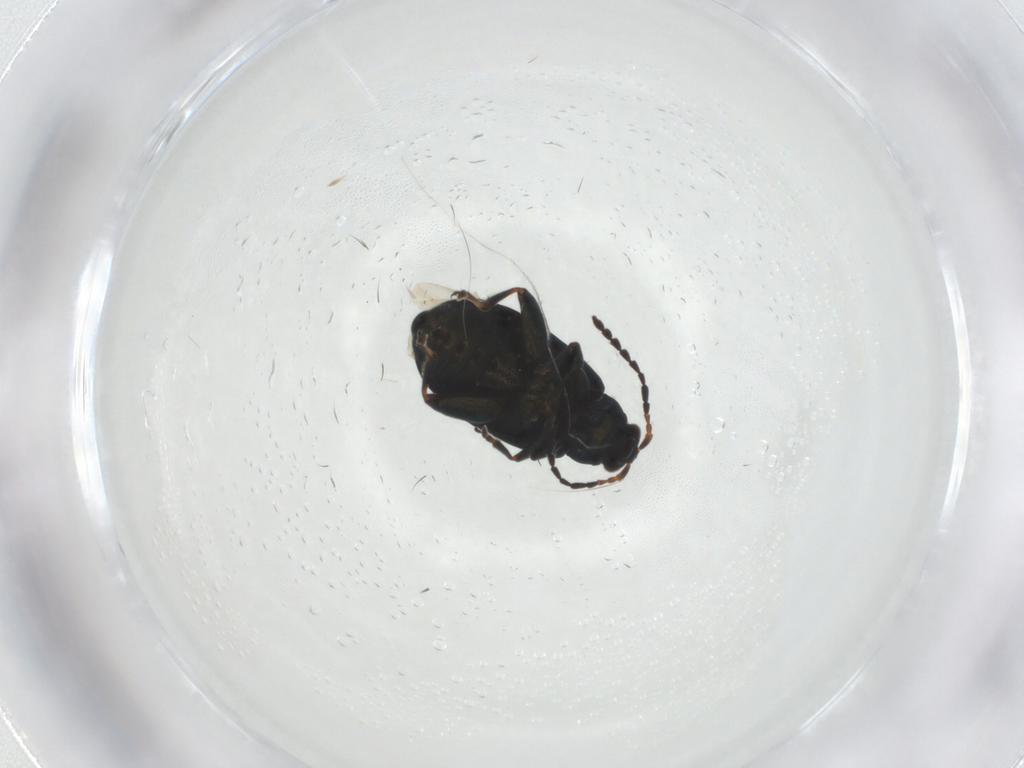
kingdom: Animalia
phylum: Arthropoda
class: Insecta
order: Coleoptera
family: Chrysomelidae
